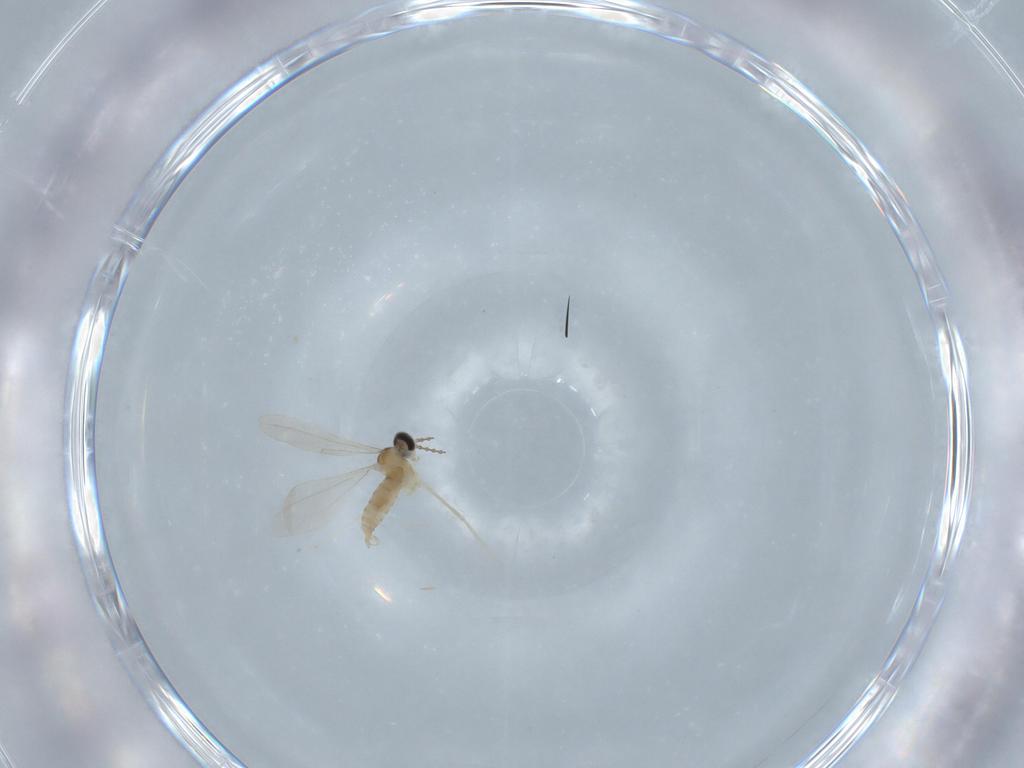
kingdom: Animalia
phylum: Arthropoda
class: Insecta
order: Diptera
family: Cecidomyiidae
